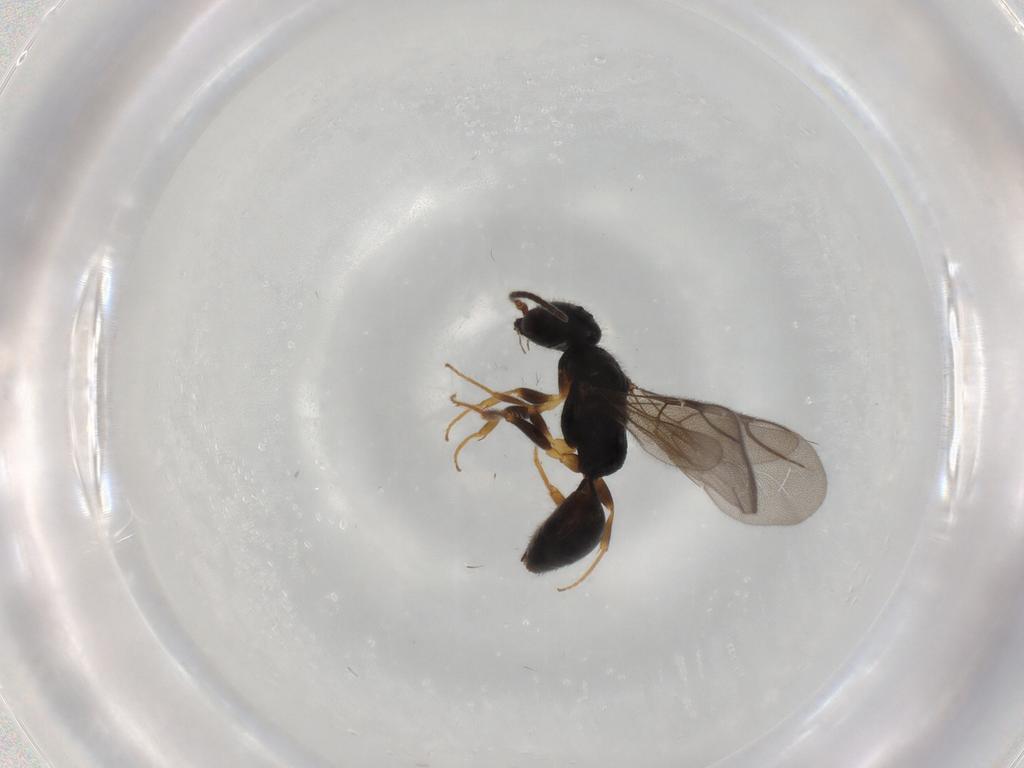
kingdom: Animalia
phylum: Arthropoda
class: Insecta
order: Hymenoptera
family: Bethylidae
